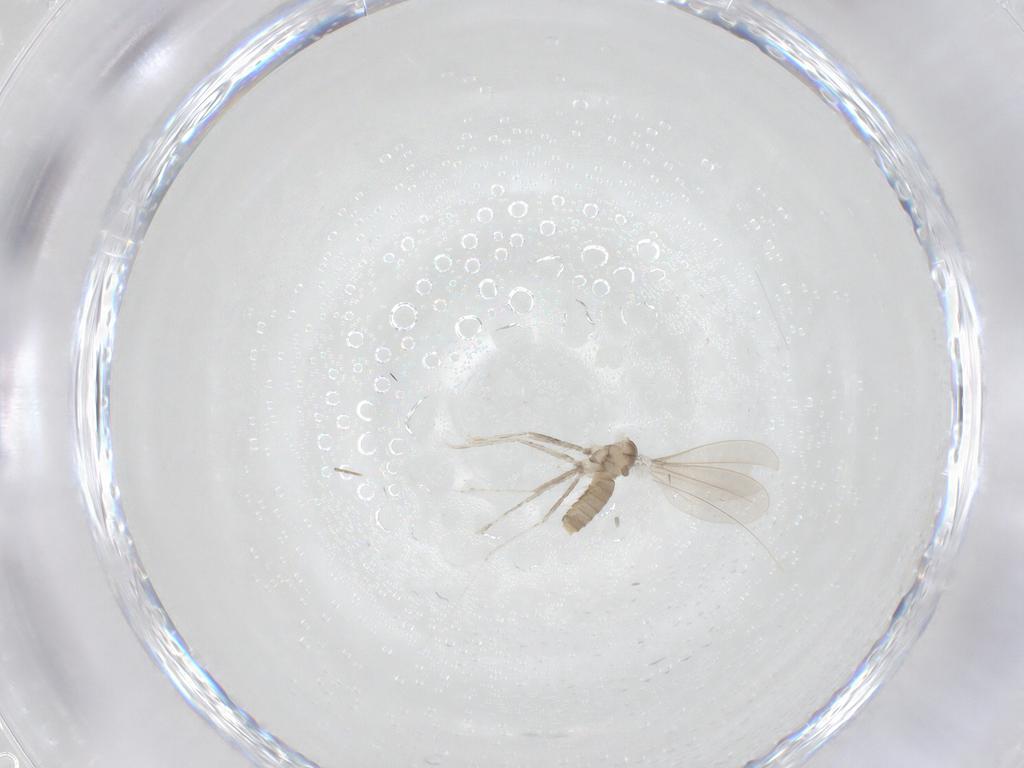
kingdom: Animalia
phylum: Arthropoda
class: Insecta
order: Diptera
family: Cecidomyiidae
